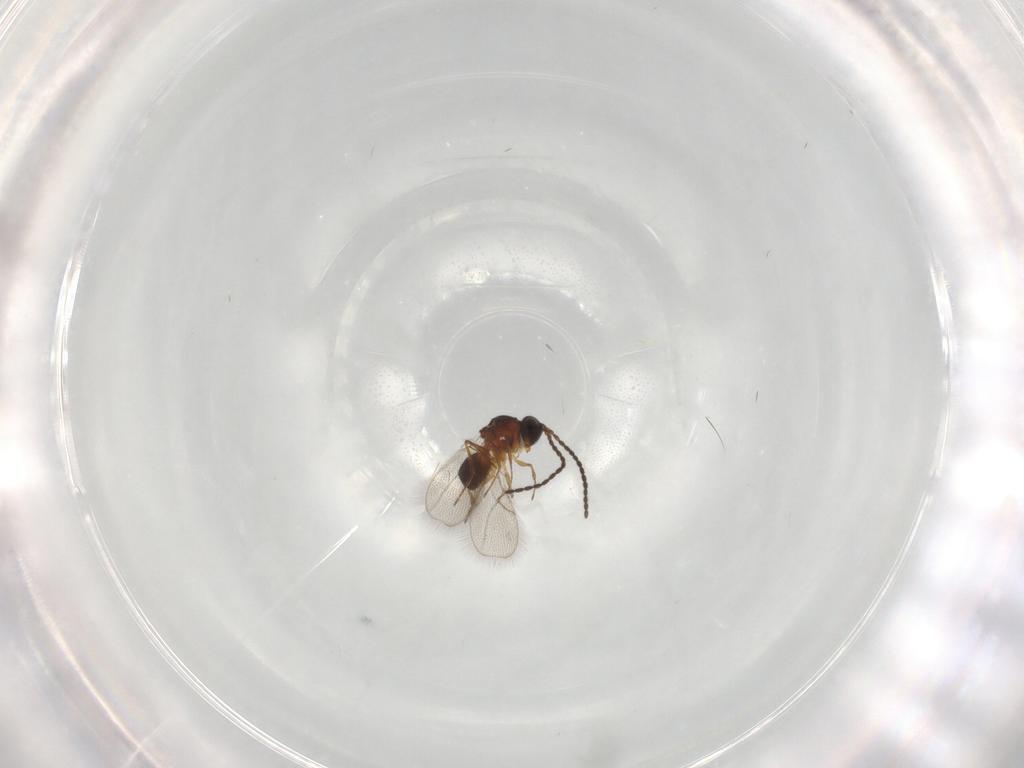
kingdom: Animalia
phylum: Arthropoda
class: Insecta
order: Hymenoptera
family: Figitidae
